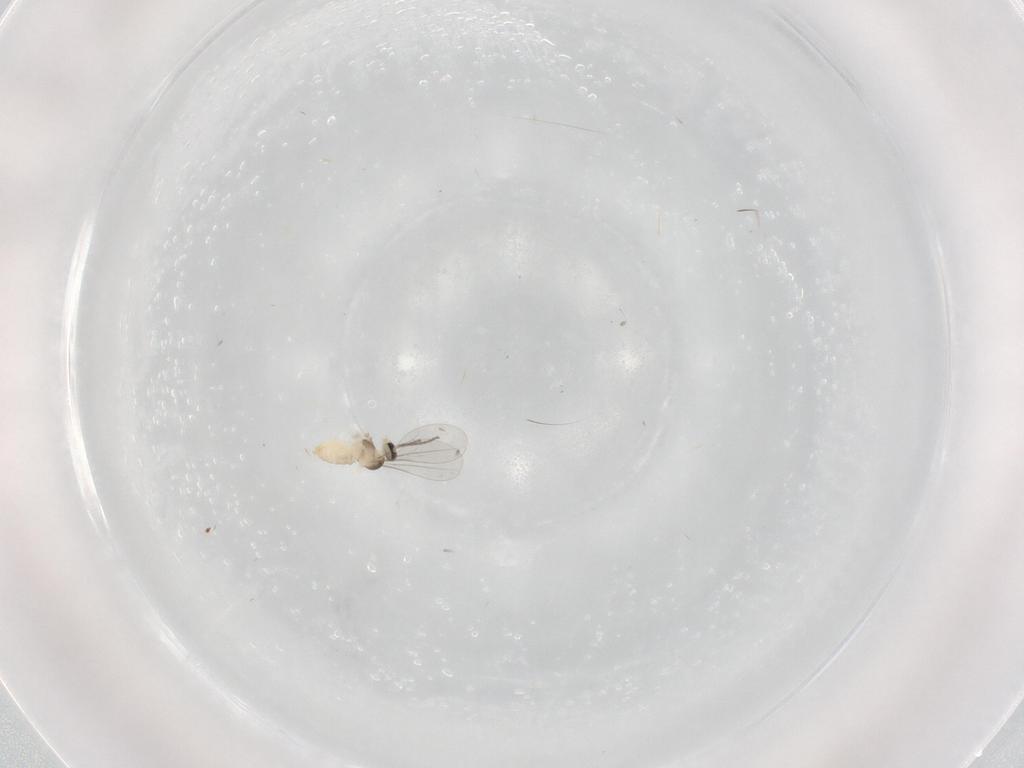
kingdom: Animalia
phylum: Arthropoda
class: Insecta
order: Diptera
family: Cecidomyiidae
